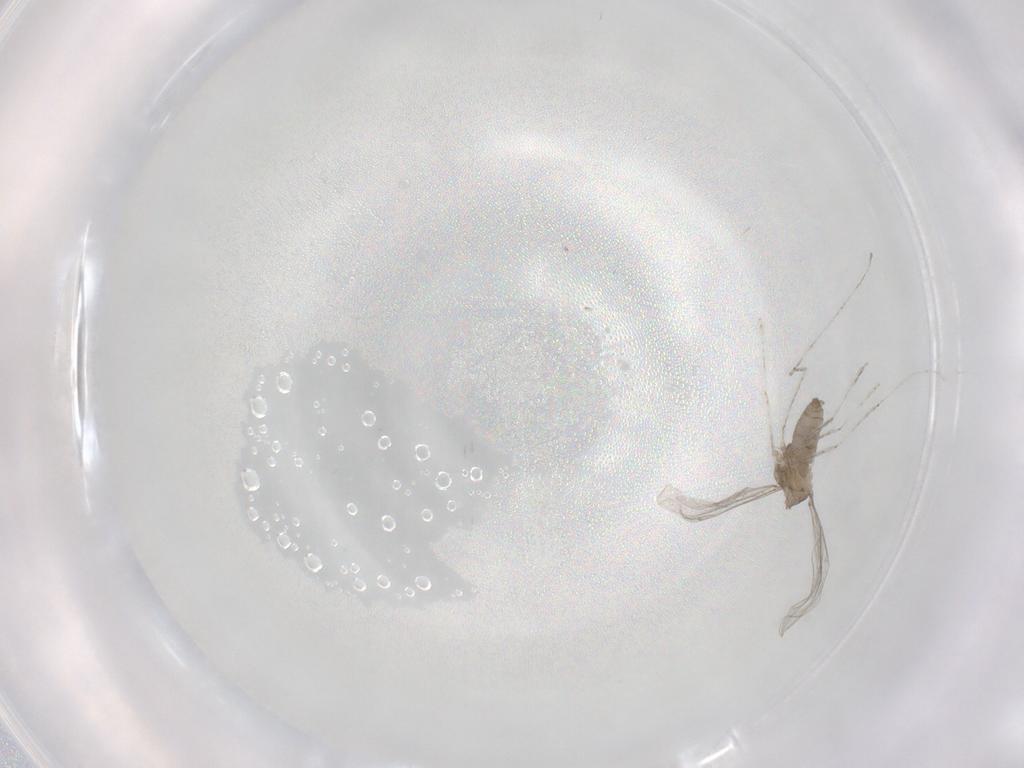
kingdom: Animalia
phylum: Arthropoda
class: Insecta
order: Diptera
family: Phoridae
